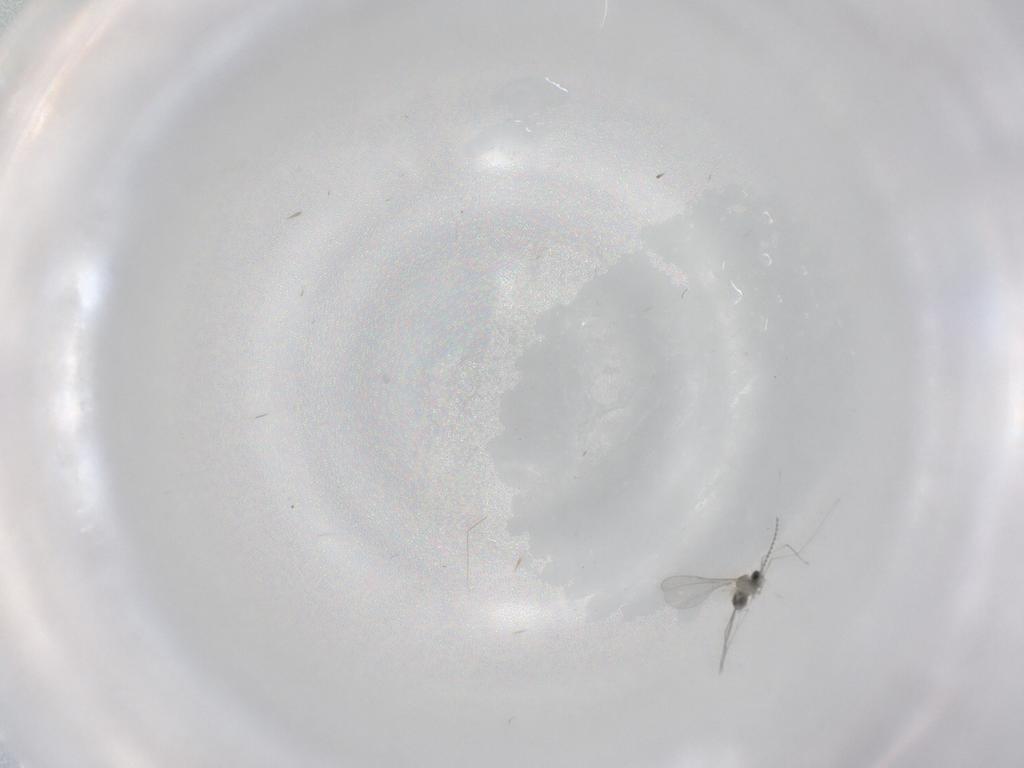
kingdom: Animalia
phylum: Arthropoda
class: Insecta
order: Diptera
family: Cecidomyiidae
